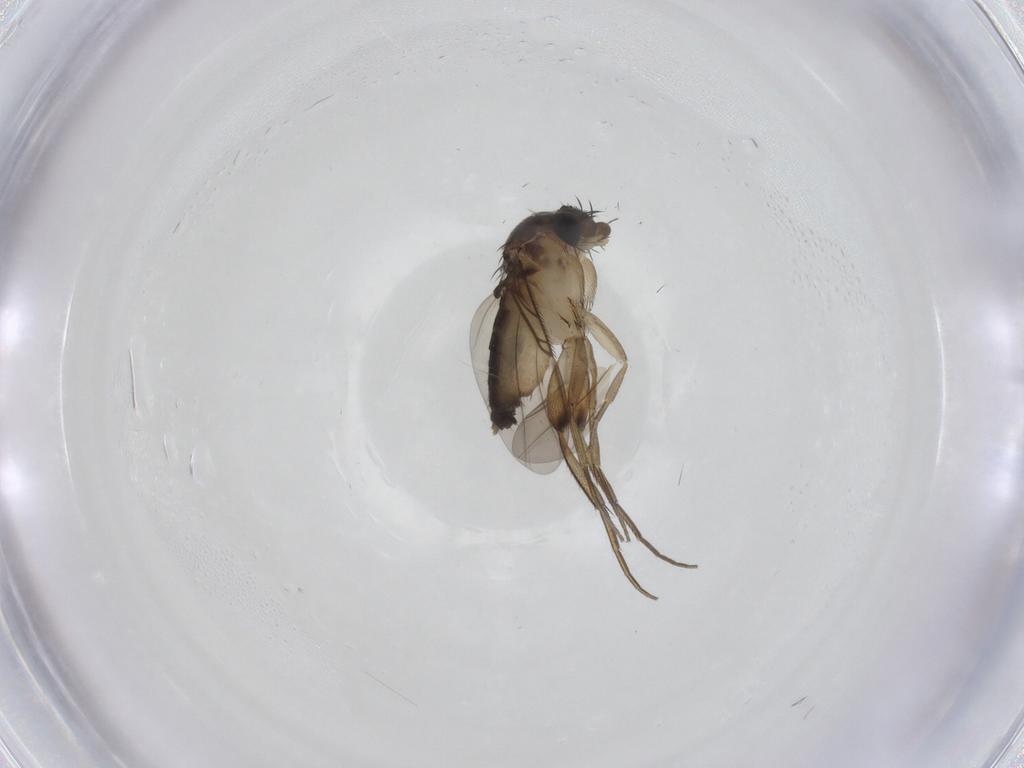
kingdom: Animalia
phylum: Arthropoda
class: Insecta
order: Diptera
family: Phoridae
